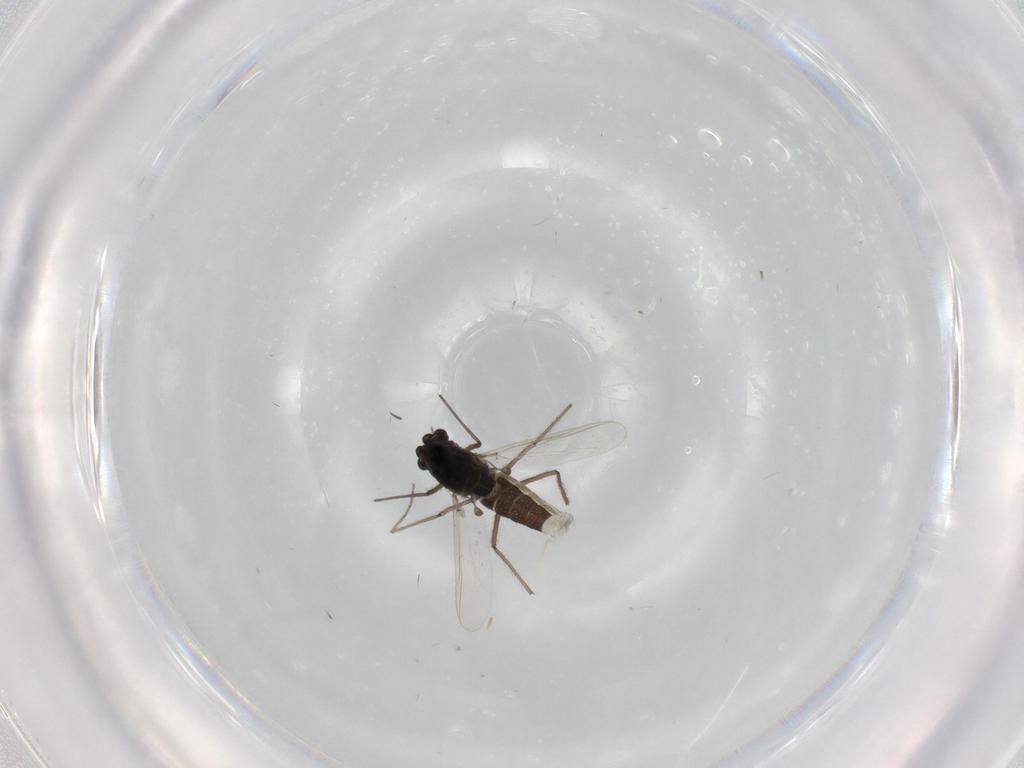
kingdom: Animalia
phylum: Arthropoda
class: Insecta
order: Diptera
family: Chironomidae
